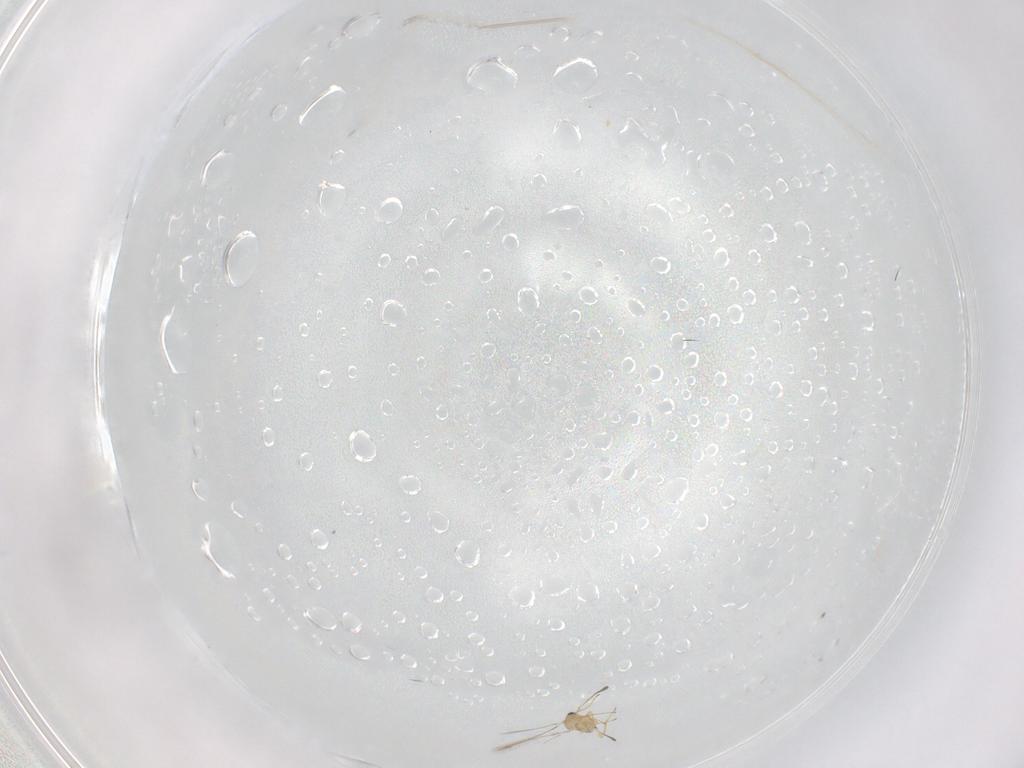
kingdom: Animalia
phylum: Arthropoda
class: Insecta
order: Hymenoptera
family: Mymaridae
